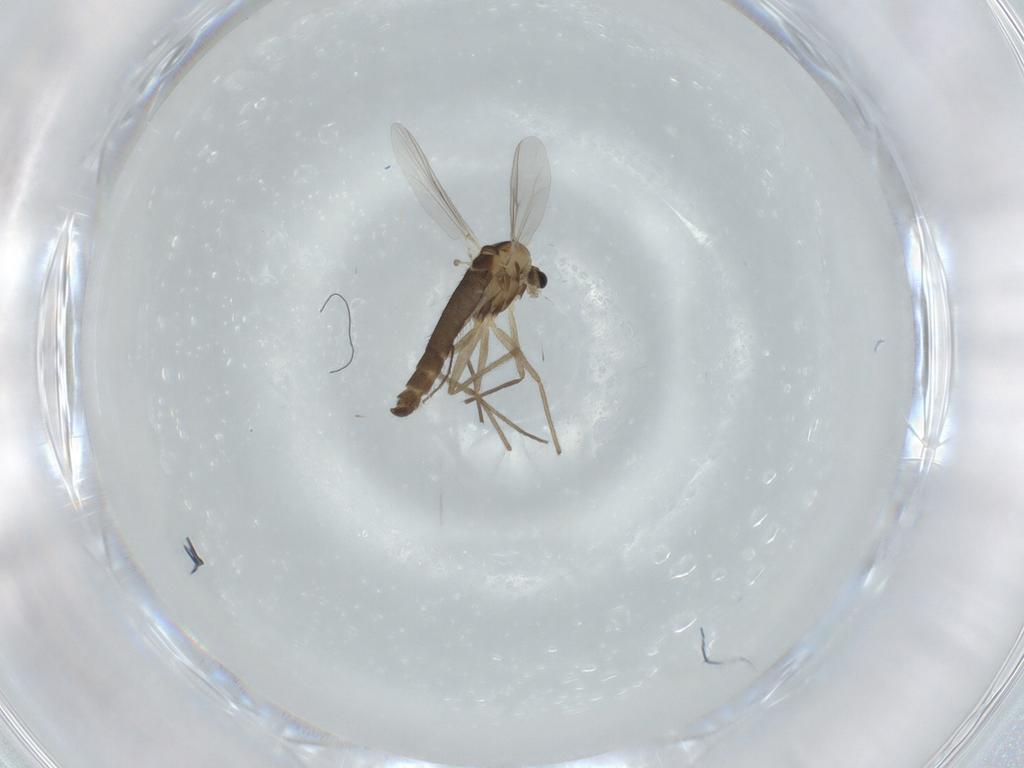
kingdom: Animalia
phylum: Arthropoda
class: Insecta
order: Diptera
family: Chironomidae
